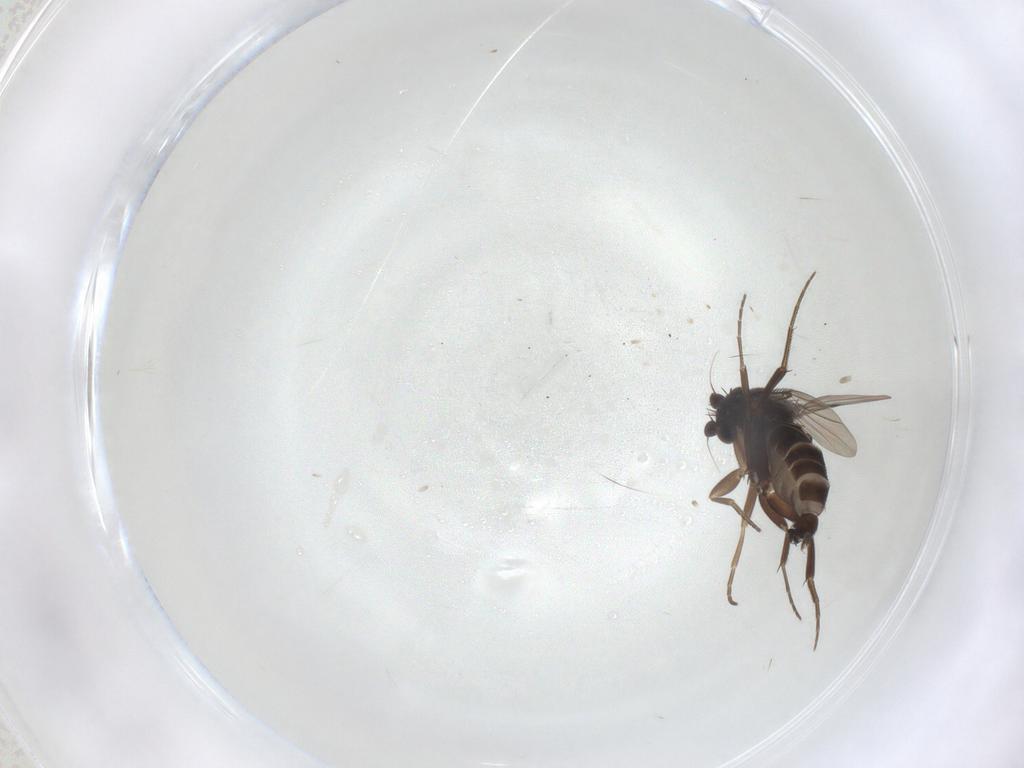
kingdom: Animalia
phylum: Arthropoda
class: Insecta
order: Diptera
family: Phoridae
